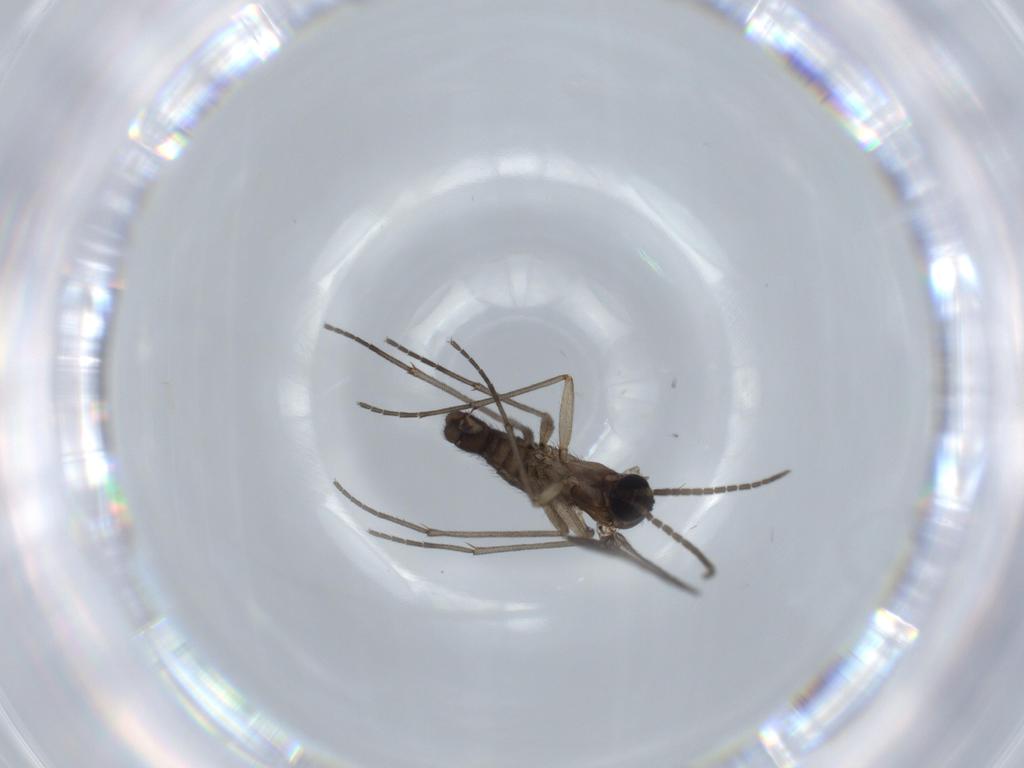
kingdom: Animalia
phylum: Arthropoda
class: Insecta
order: Diptera
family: Sciaridae
